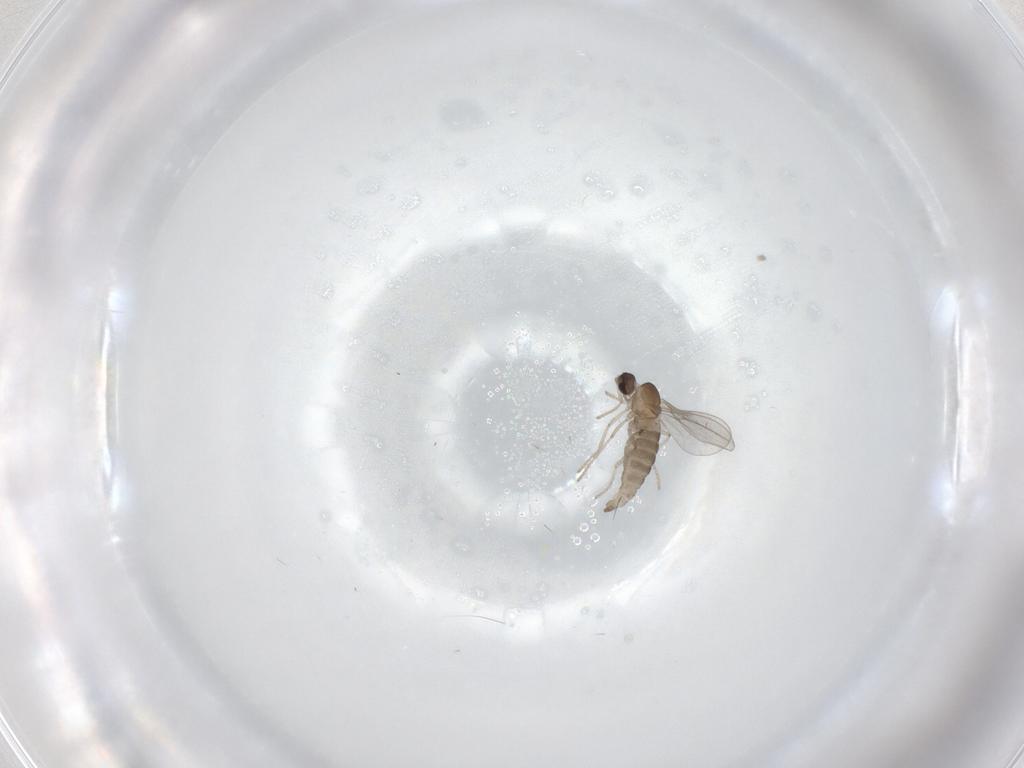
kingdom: Animalia
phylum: Arthropoda
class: Insecta
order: Diptera
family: Cecidomyiidae
